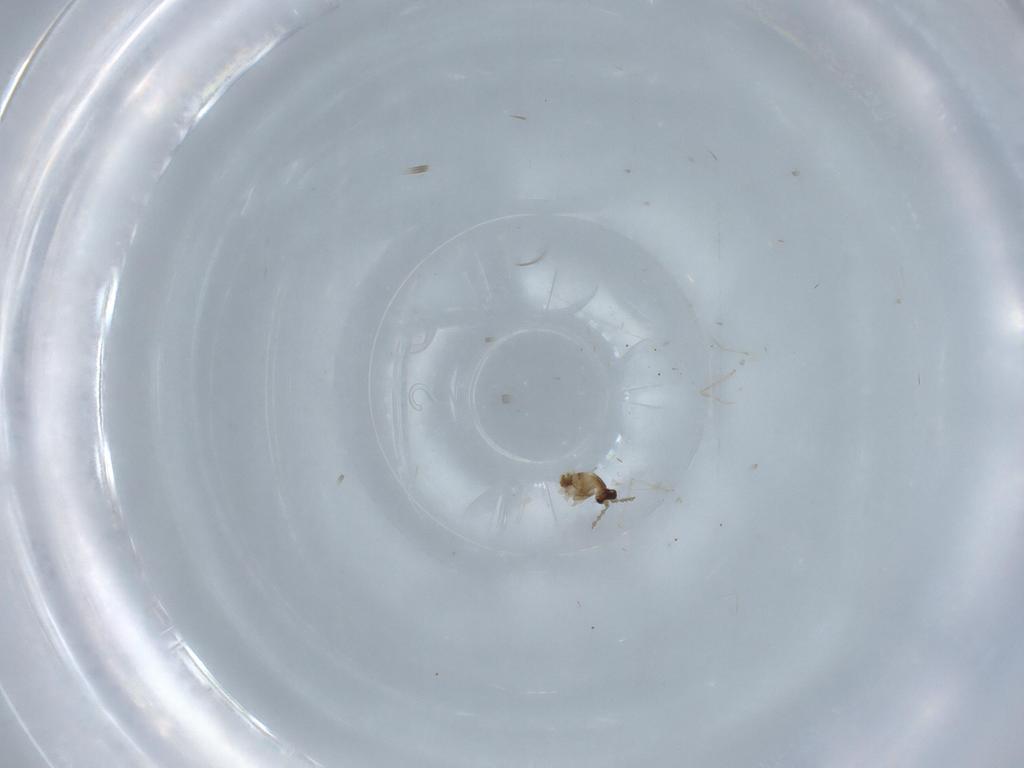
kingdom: Animalia
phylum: Arthropoda
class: Insecta
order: Diptera
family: Cecidomyiidae
